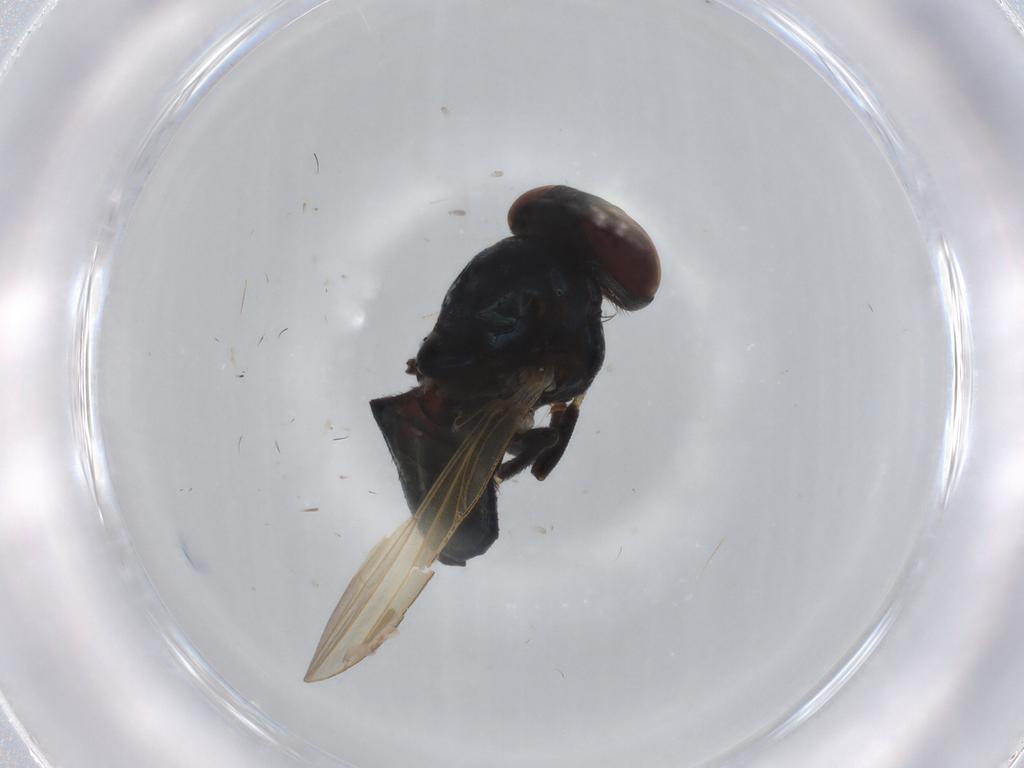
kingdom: Animalia
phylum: Arthropoda
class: Insecta
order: Diptera
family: Lonchaeidae
